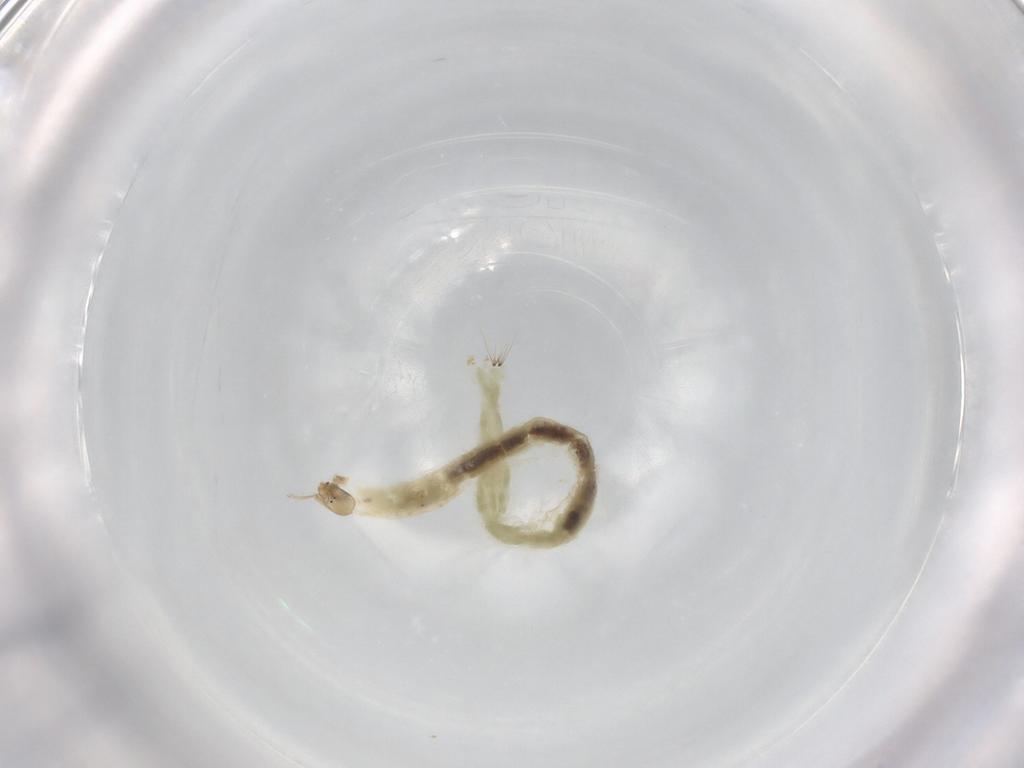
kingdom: Animalia
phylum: Arthropoda
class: Insecta
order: Diptera
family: Chironomidae
